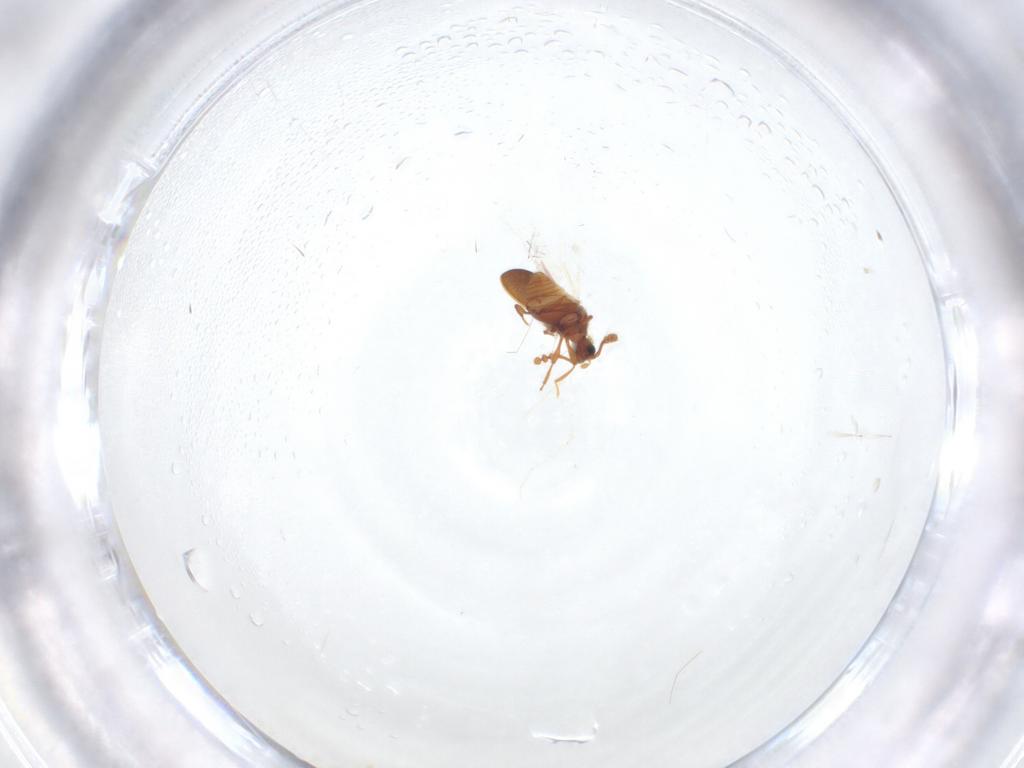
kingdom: Animalia
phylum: Arthropoda
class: Insecta
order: Coleoptera
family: Staphylinidae
